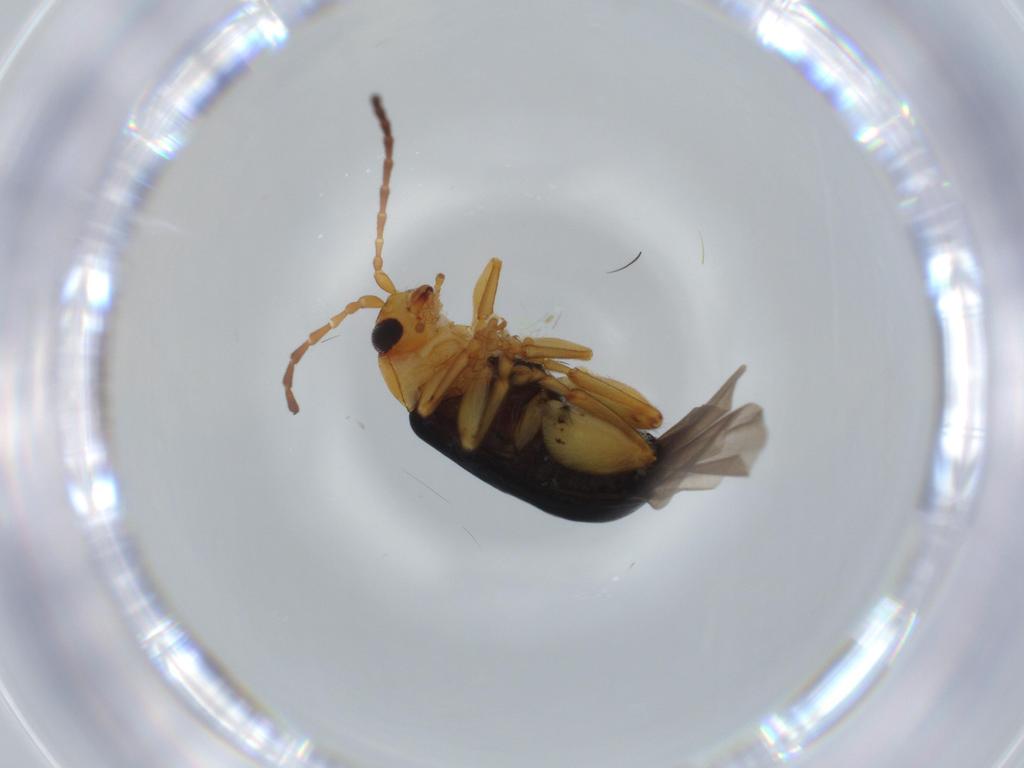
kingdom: Animalia
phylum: Arthropoda
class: Insecta
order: Coleoptera
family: Chrysomelidae
